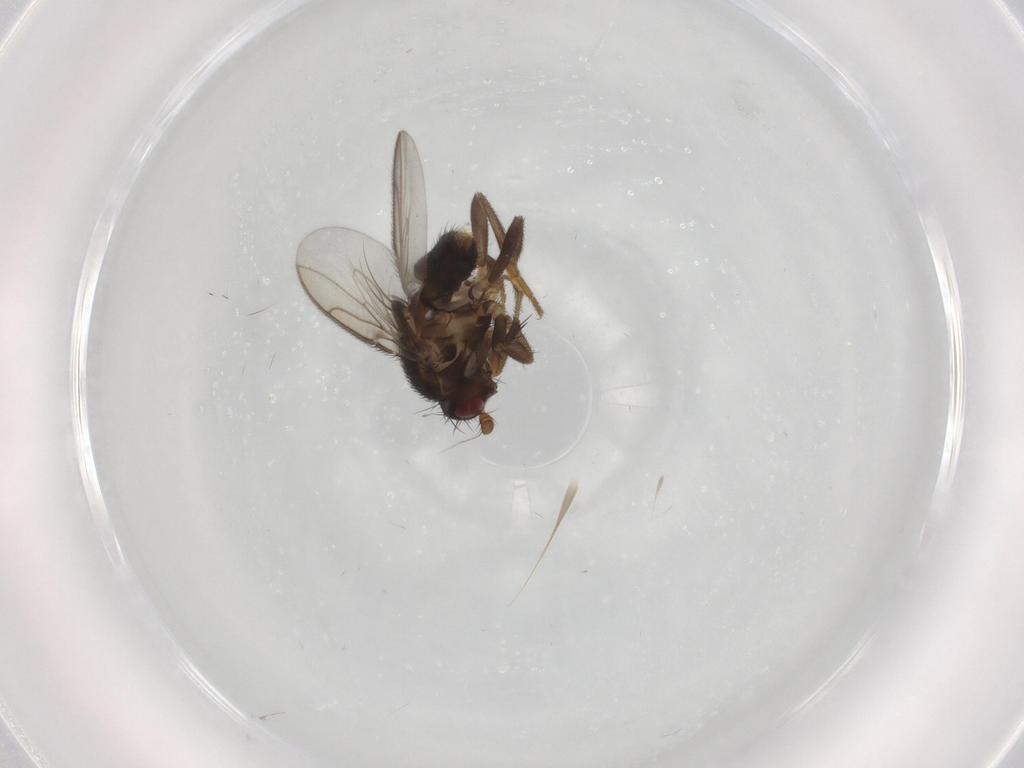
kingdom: Animalia
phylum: Arthropoda
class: Insecta
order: Diptera
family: Sphaeroceridae
